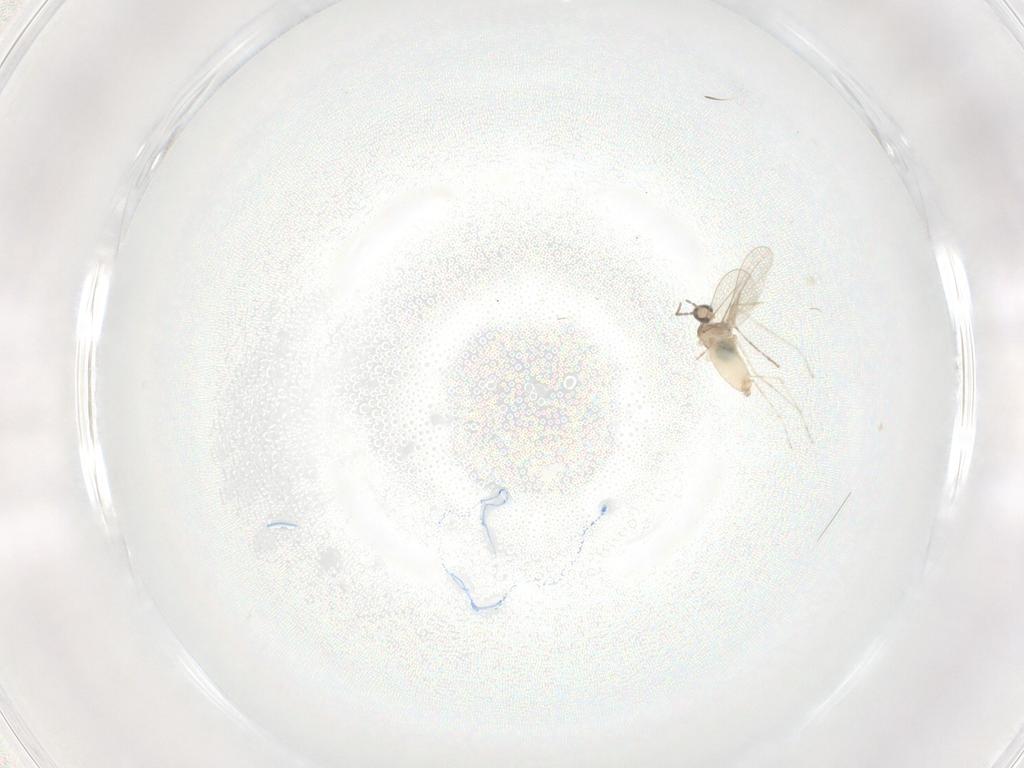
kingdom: Animalia
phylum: Arthropoda
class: Insecta
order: Diptera
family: Cecidomyiidae
